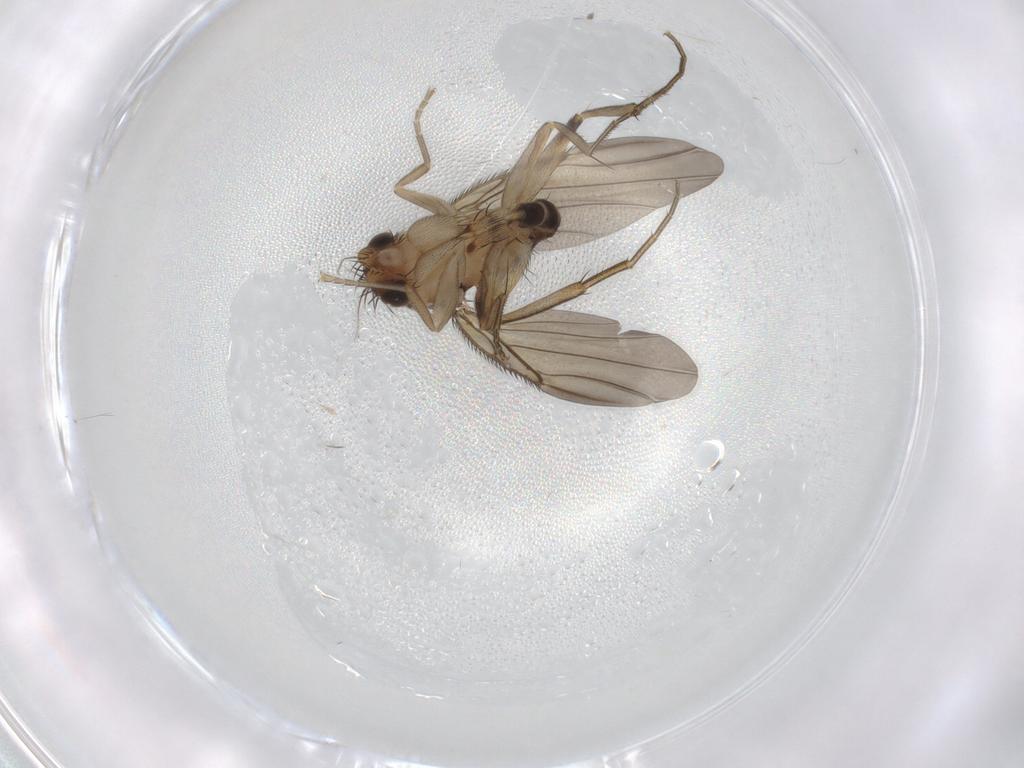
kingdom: Animalia
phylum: Arthropoda
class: Insecta
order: Diptera
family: Phoridae
